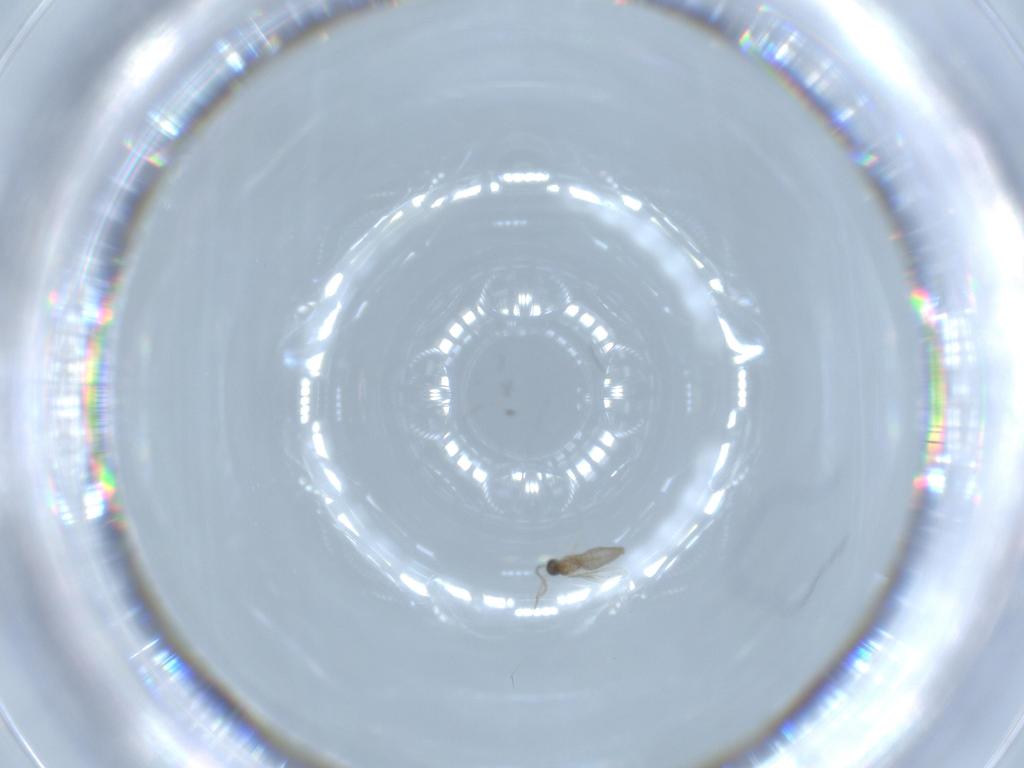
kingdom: Animalia
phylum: Arthropoda
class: Insecta
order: Diptera
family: Cecidomyiidae
